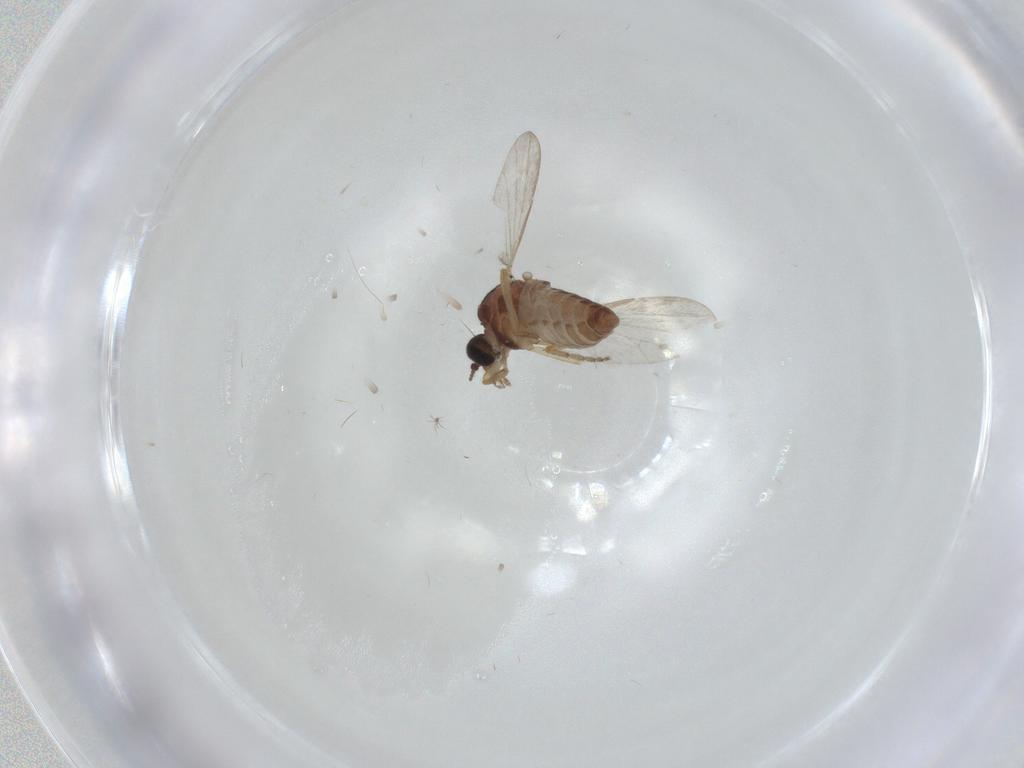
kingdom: Animalia
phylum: Arthropoda
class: Insecta
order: Diptera
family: Ceratopogonidae
